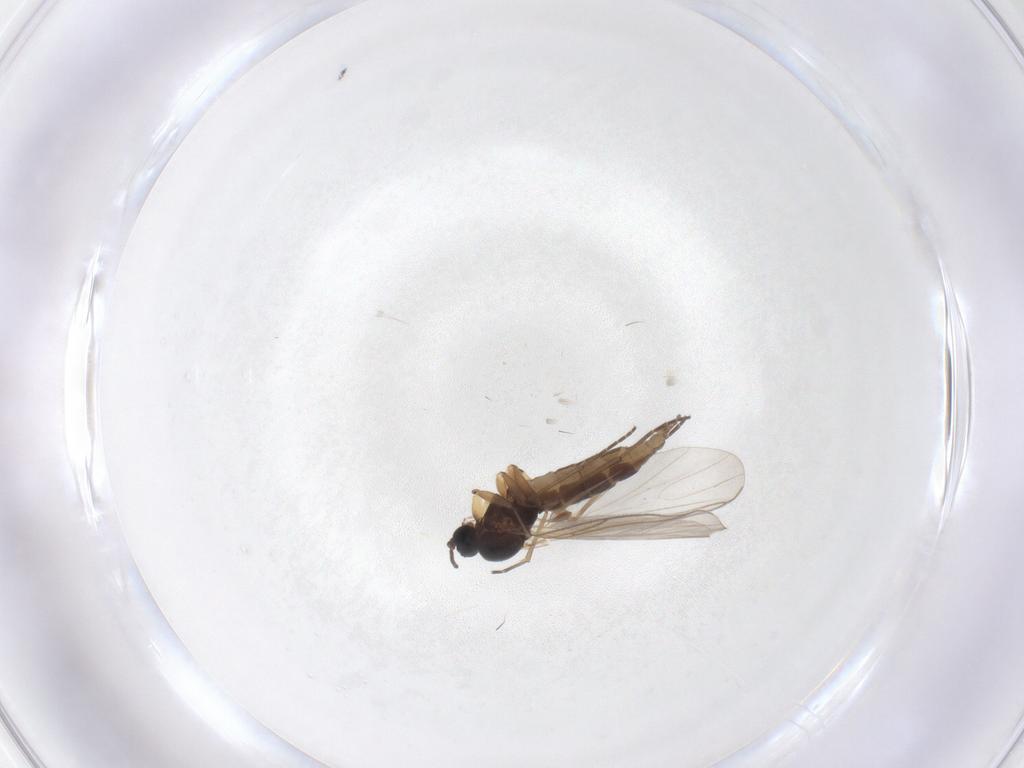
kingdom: Animalia
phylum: Arthropoda
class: Insecta
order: Diptera
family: Sciaridae
